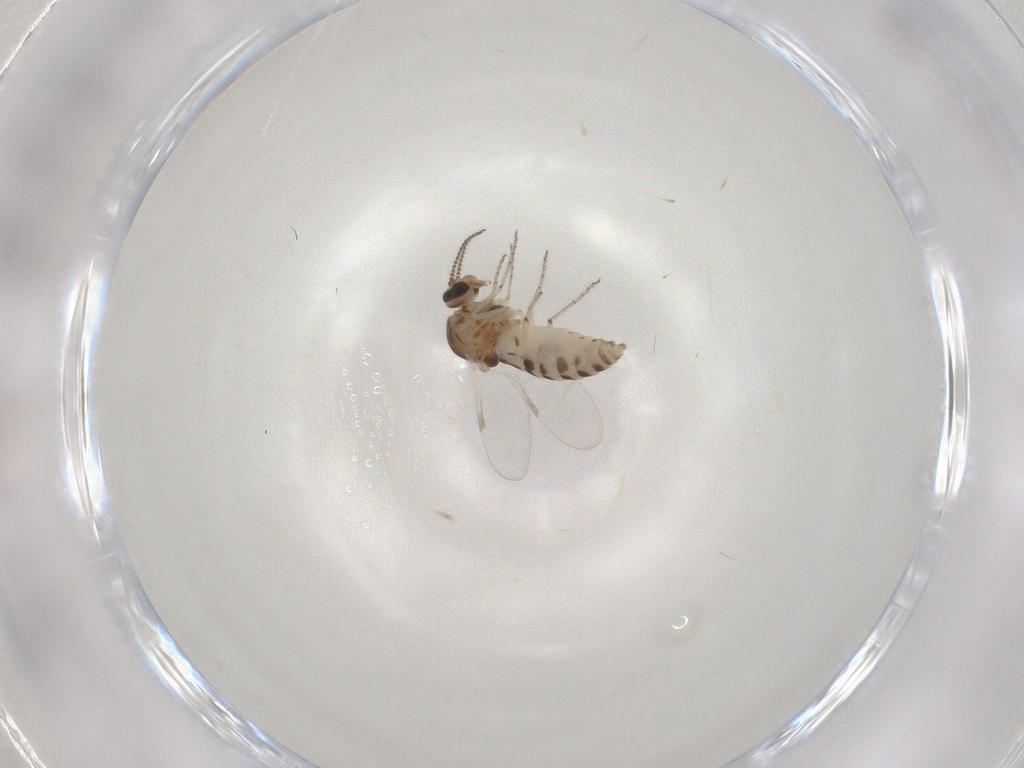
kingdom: Animalia
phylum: Arthropoda
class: Insecta
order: Diptera
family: Ceratopogonidae
